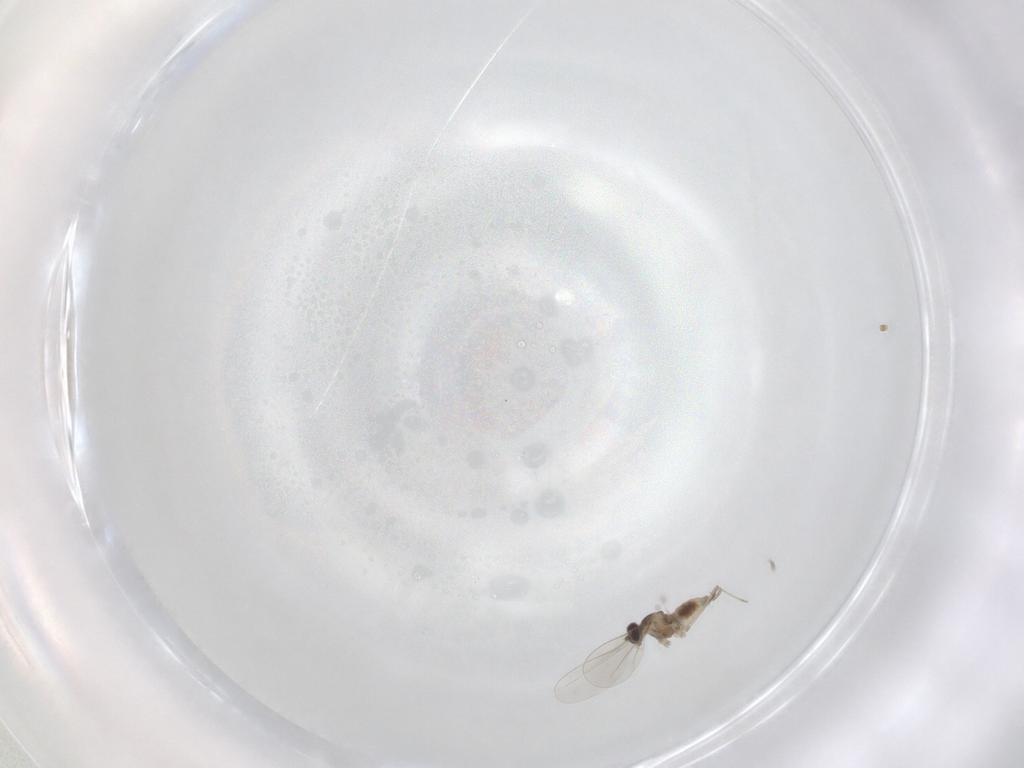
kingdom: Animalia
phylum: Arthropoda
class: Insecta
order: Diptera
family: Cecidomyiidae
